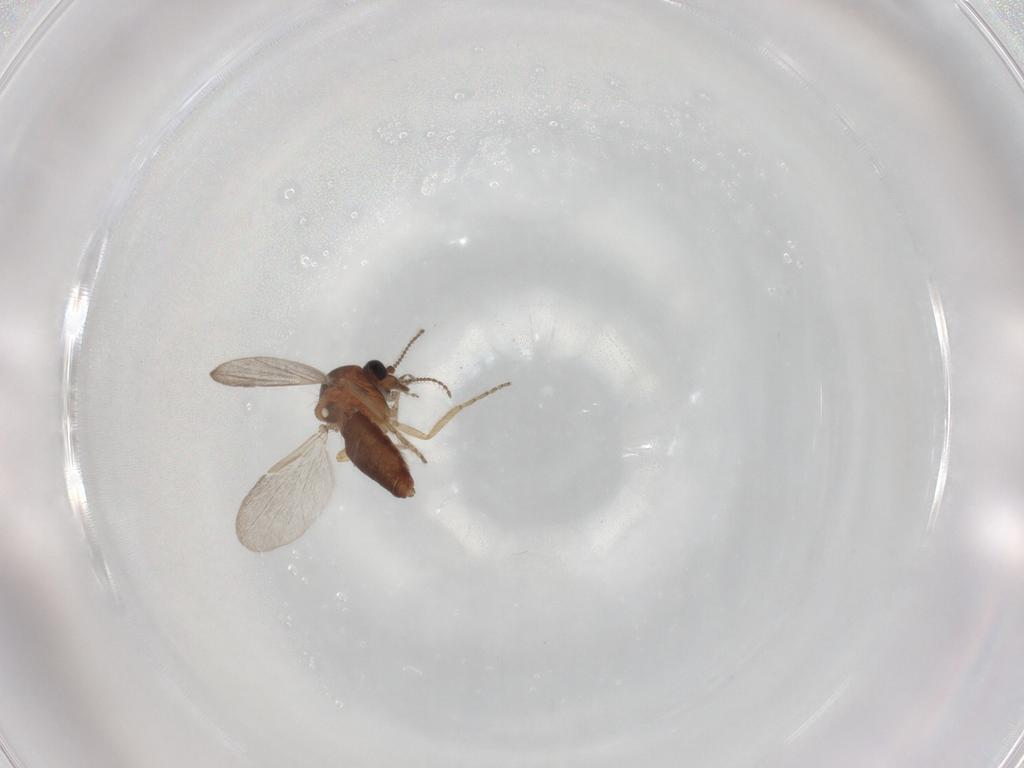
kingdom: Animalia
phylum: Arthropoda
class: Insecta
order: Diptera
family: Ceratopogonidae
